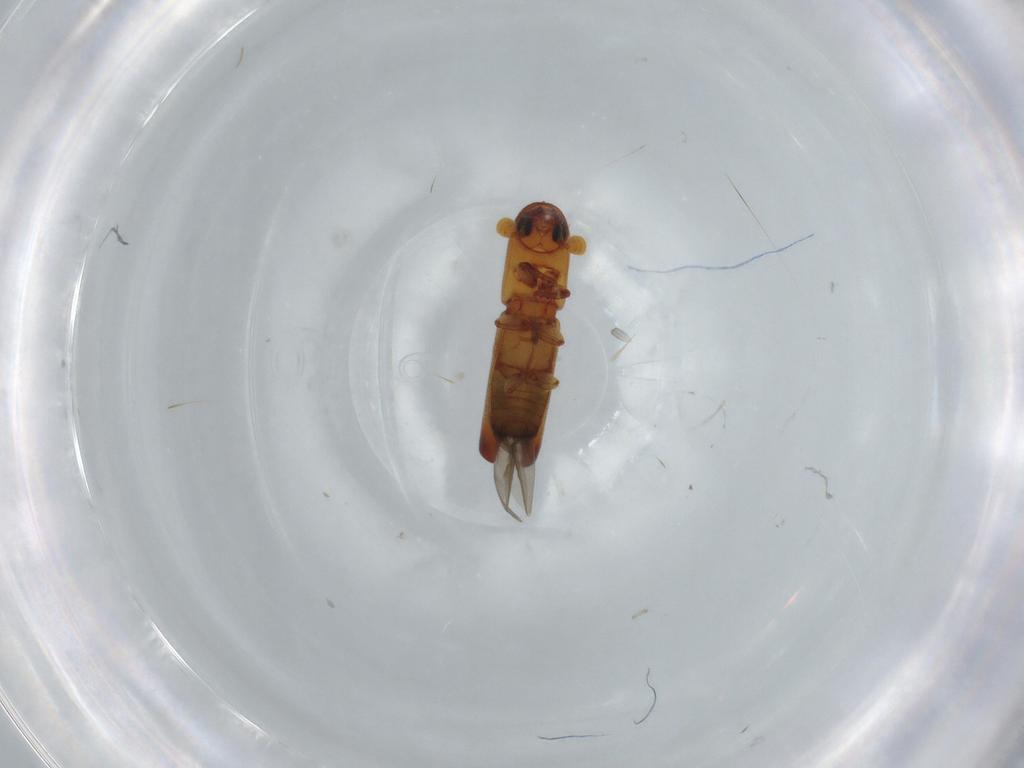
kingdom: Animalia
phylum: Arthropoda
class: Insecta
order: Coleoptera
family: Curculionidae
